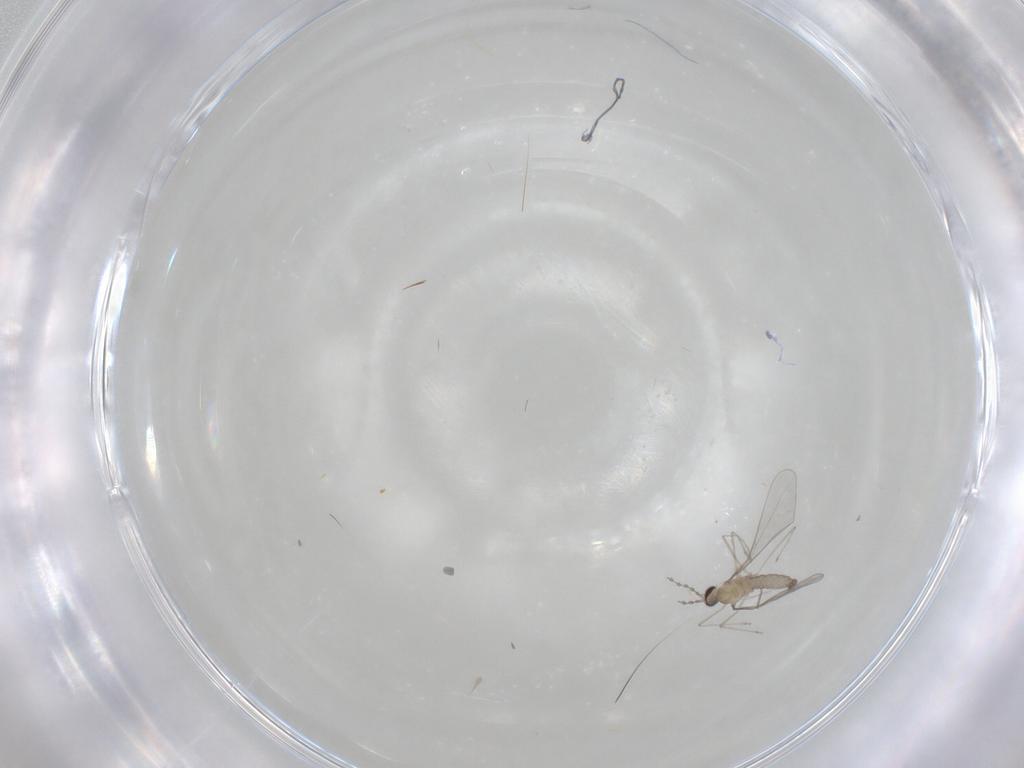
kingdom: Animalia
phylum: Arthropoda
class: Insecta
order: Diptera
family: Cecidomyiidae
